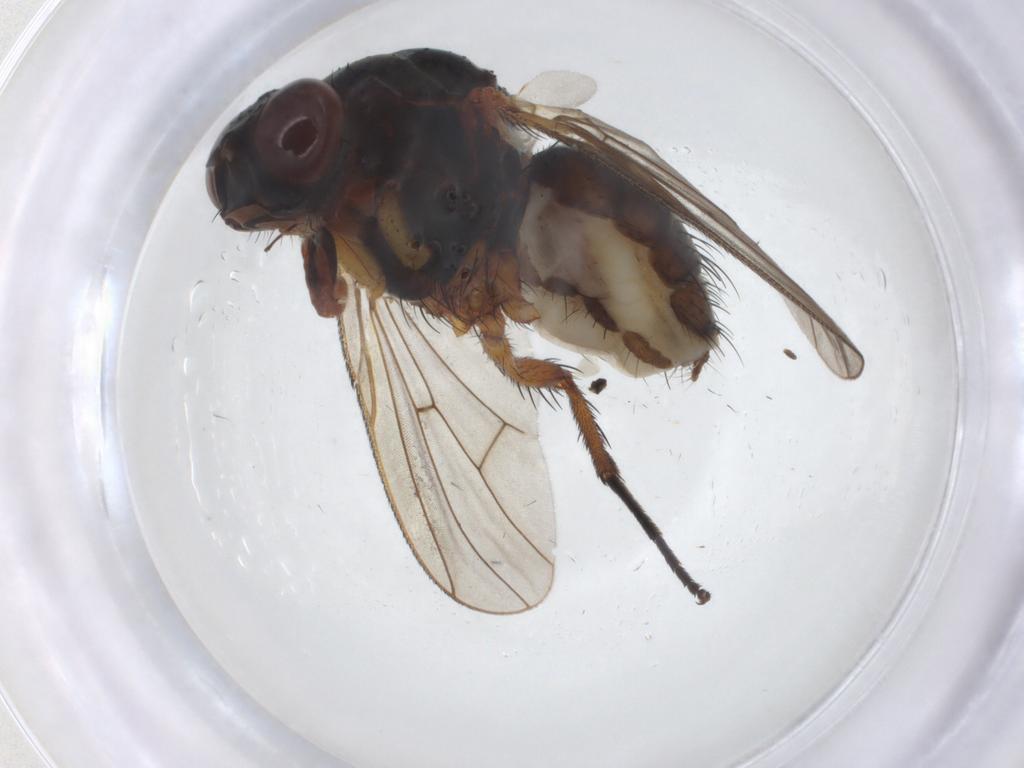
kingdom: Animalia
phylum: Arthropoda
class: Insecta
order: Diptera
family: Anthomyiidae
